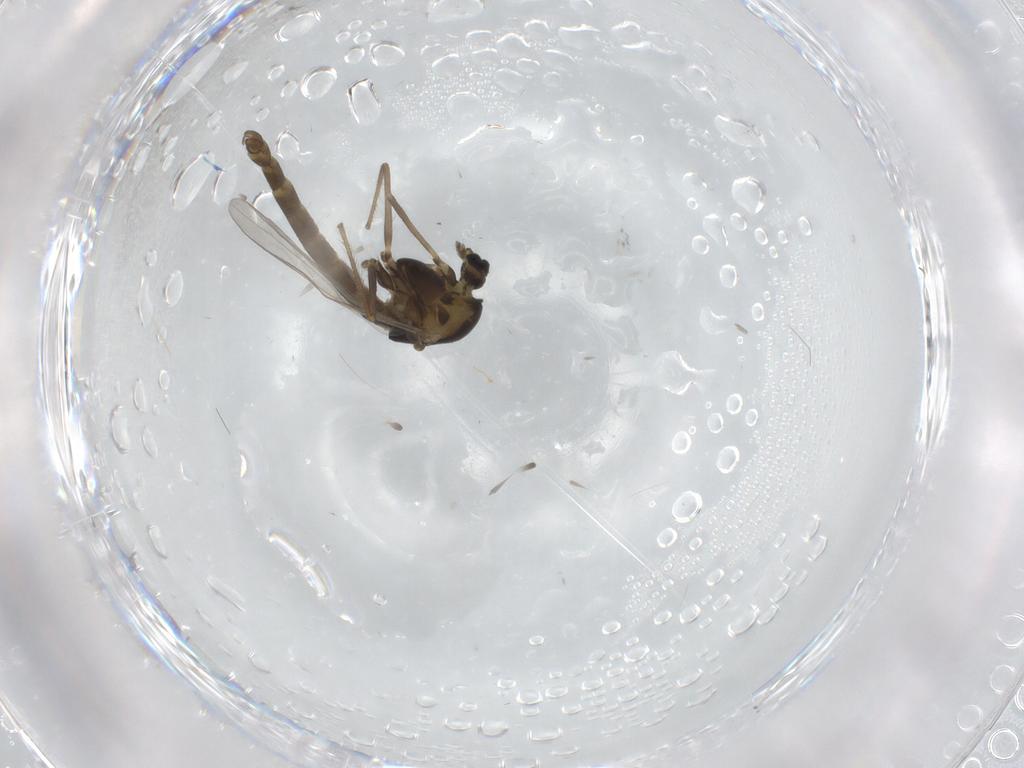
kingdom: Animalia
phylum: Arthropoda
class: Insecta
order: Diptera
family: Chironomidae
